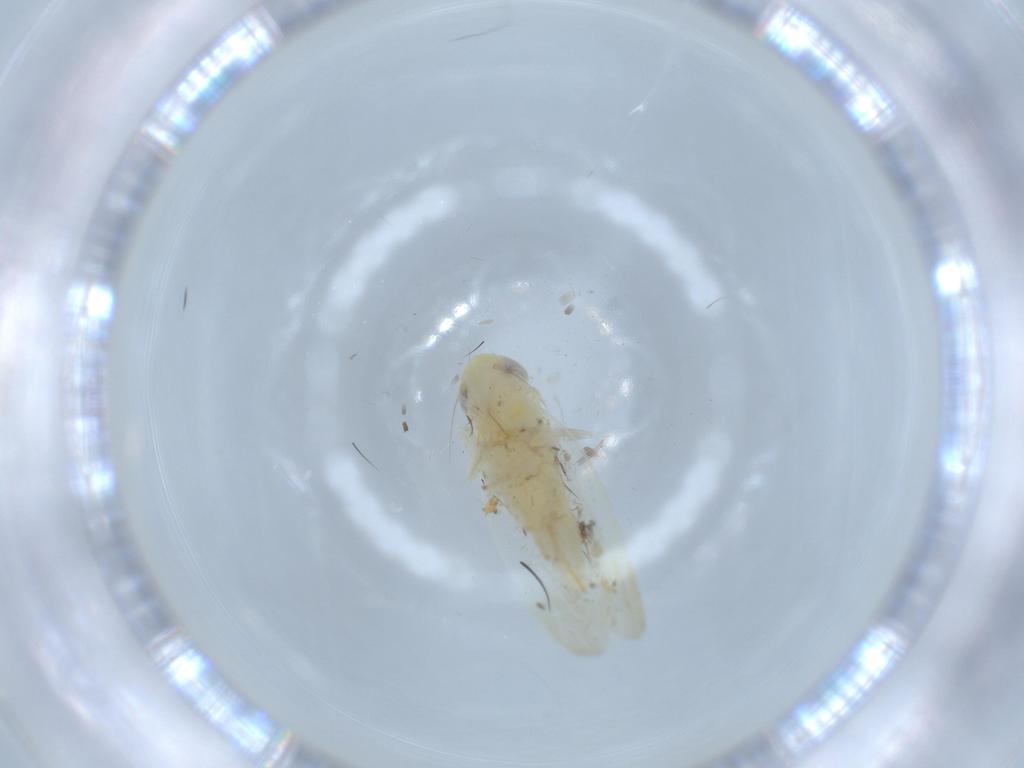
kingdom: Animalia
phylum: Arthropoda
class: Insecta
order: Hemiptera
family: Cicadellidae
